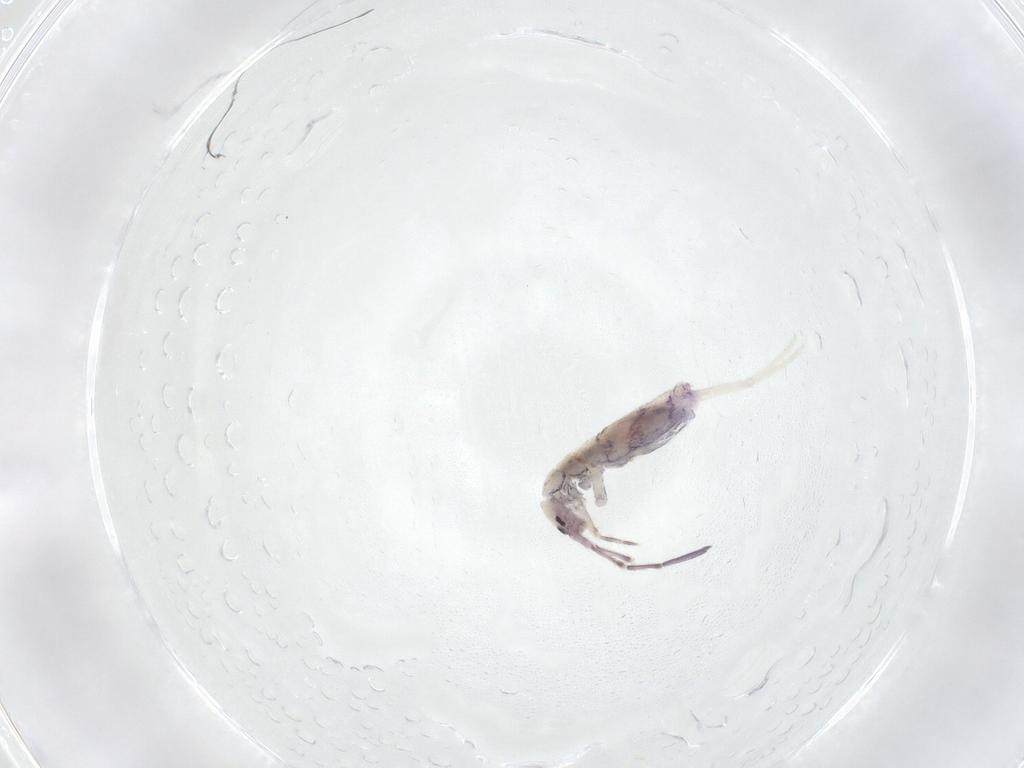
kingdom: Animalia
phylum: Arthropoda
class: Collembola
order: Entomobryomorpha
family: Entomobryidae
